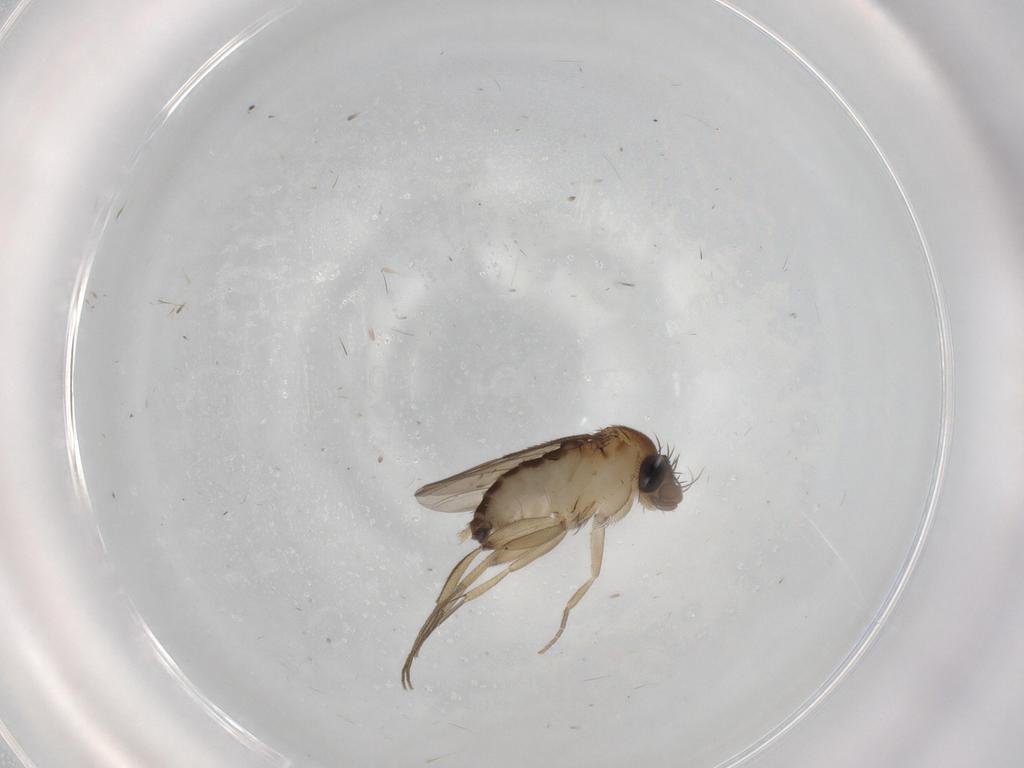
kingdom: Animalia
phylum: Arthropoda
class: Insecta
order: Diptera
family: Phoridae
